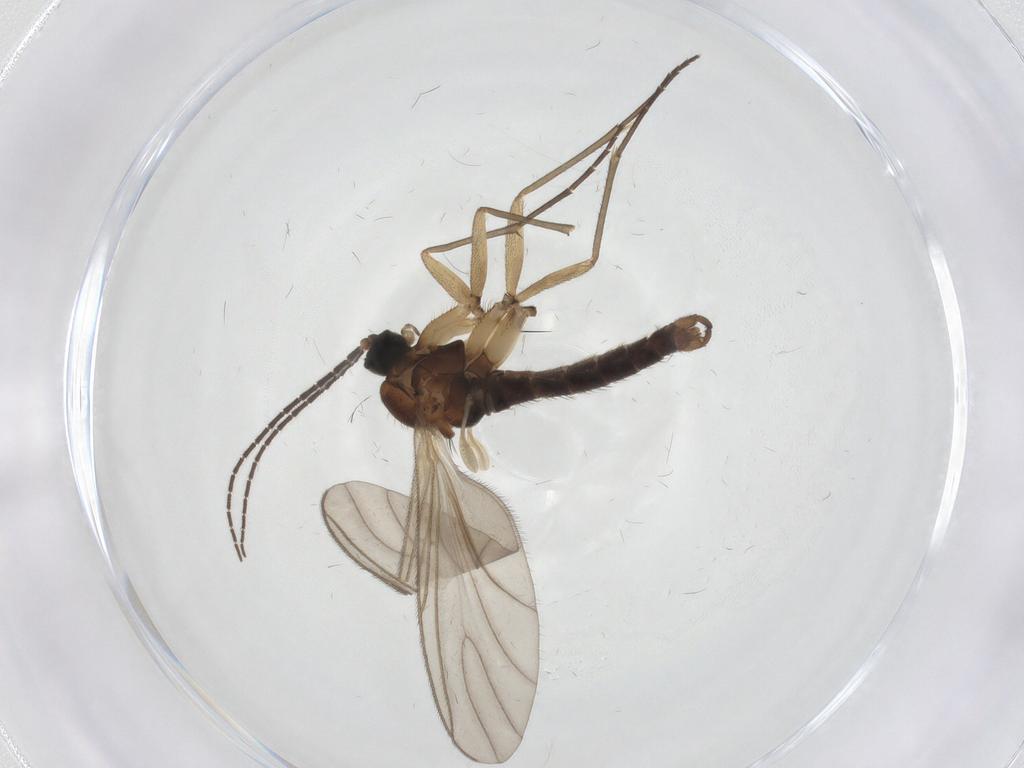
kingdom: Animalia
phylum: Arthropoda
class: Insecta
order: Diptera
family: Sciaridae
